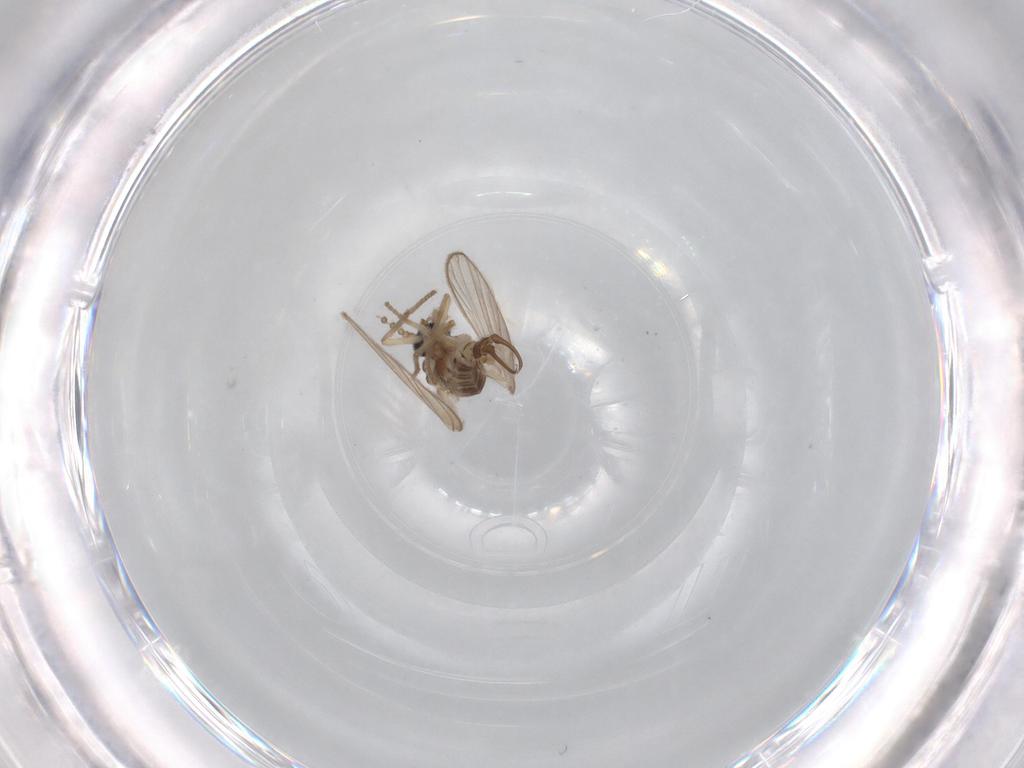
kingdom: Animalia
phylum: Arthropoda
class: Insecta
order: Diptera
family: Psychodidae
